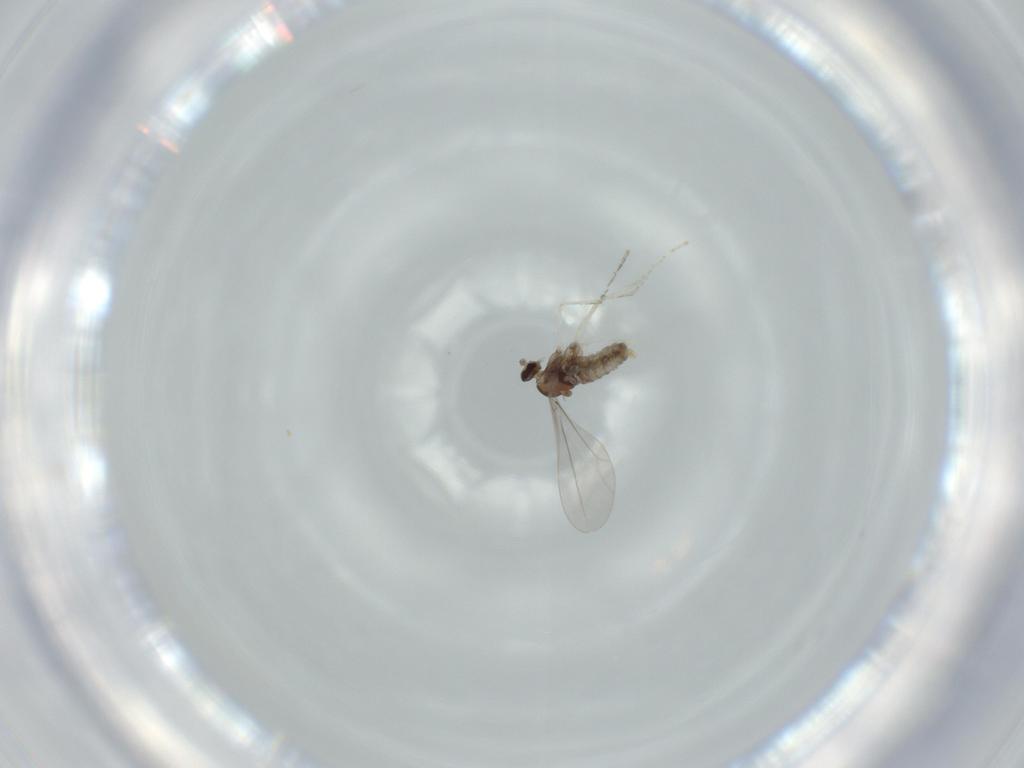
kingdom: Animalia
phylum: Arthropoda
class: Insecta
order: Diptera
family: Cecidomyiidae
